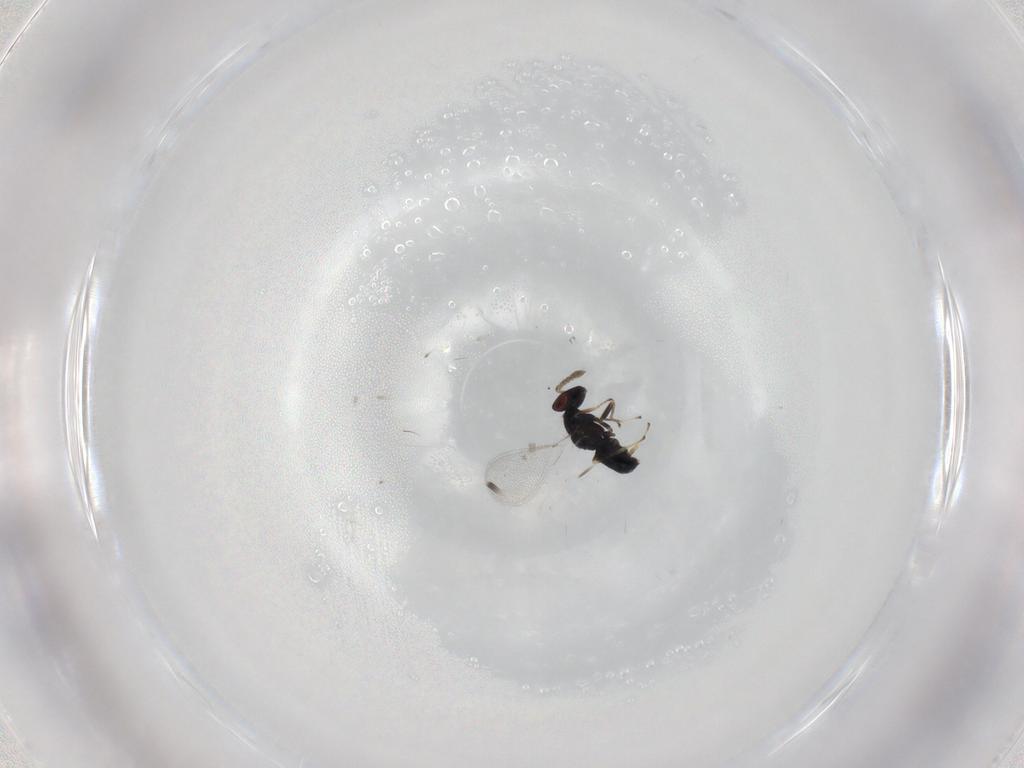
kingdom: Animalia
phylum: Arthropoda
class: Insecta
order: Hymenoptera
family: Eulophidae
